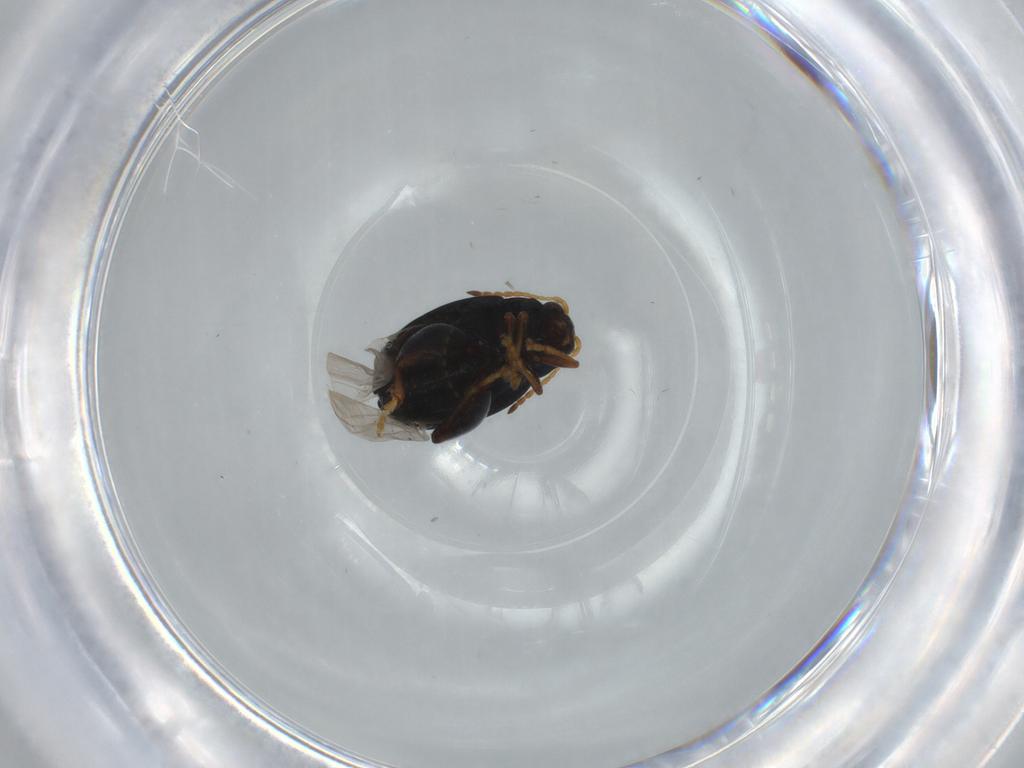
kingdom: Animalia
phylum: Arthropoda
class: Insecta
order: Coleoptera
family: Chrysomelidae
